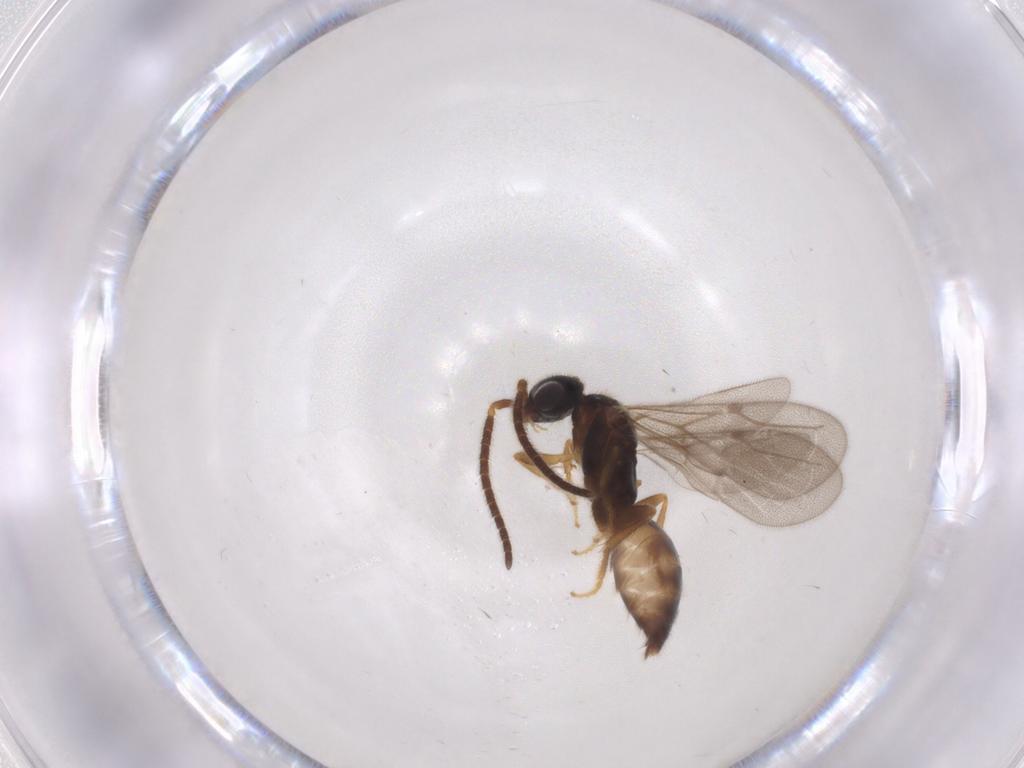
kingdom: Animalia
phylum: Arthropoda
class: Insecta
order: Hymenoptera
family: Bethylidae
